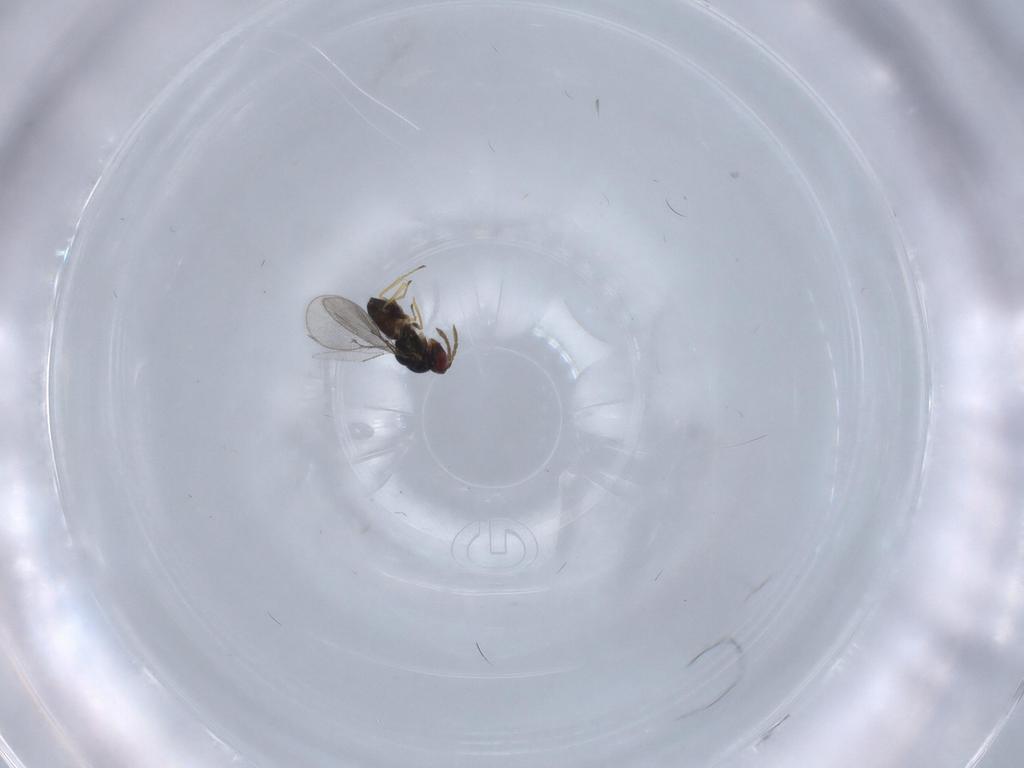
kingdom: Animalia
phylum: Arthropoda
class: Insecta
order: Hymenoptera
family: Eulophidae
